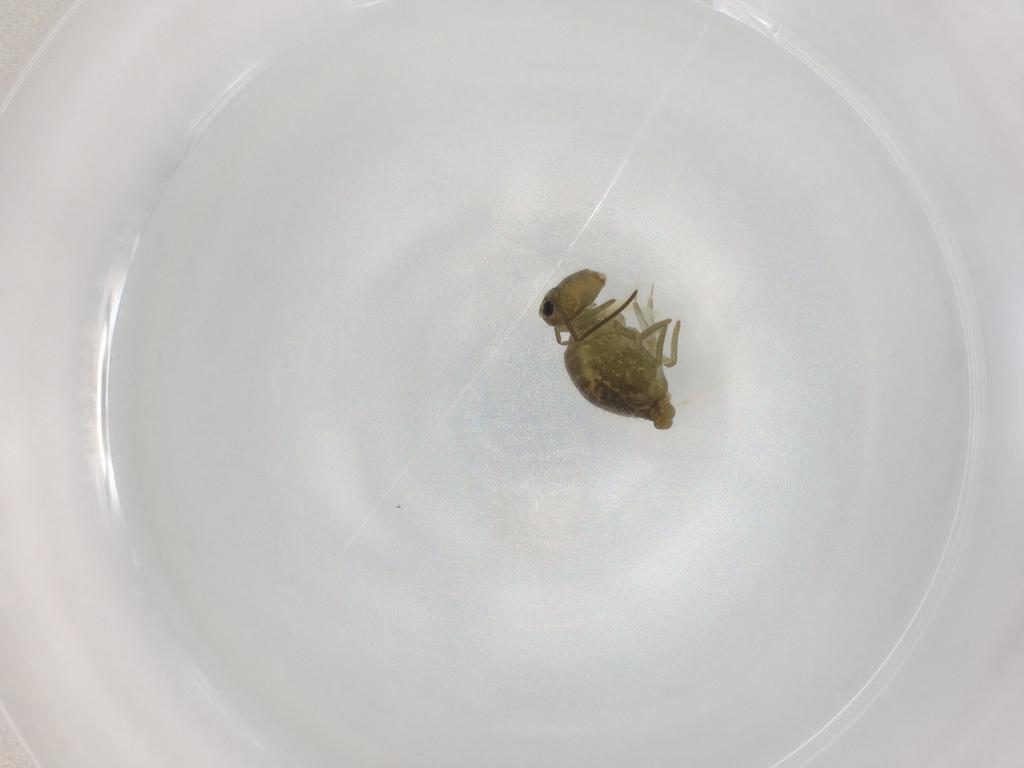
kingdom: Animalia
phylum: Arthropoda
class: Collembola
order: Symphypleona
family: Sminthuridae
